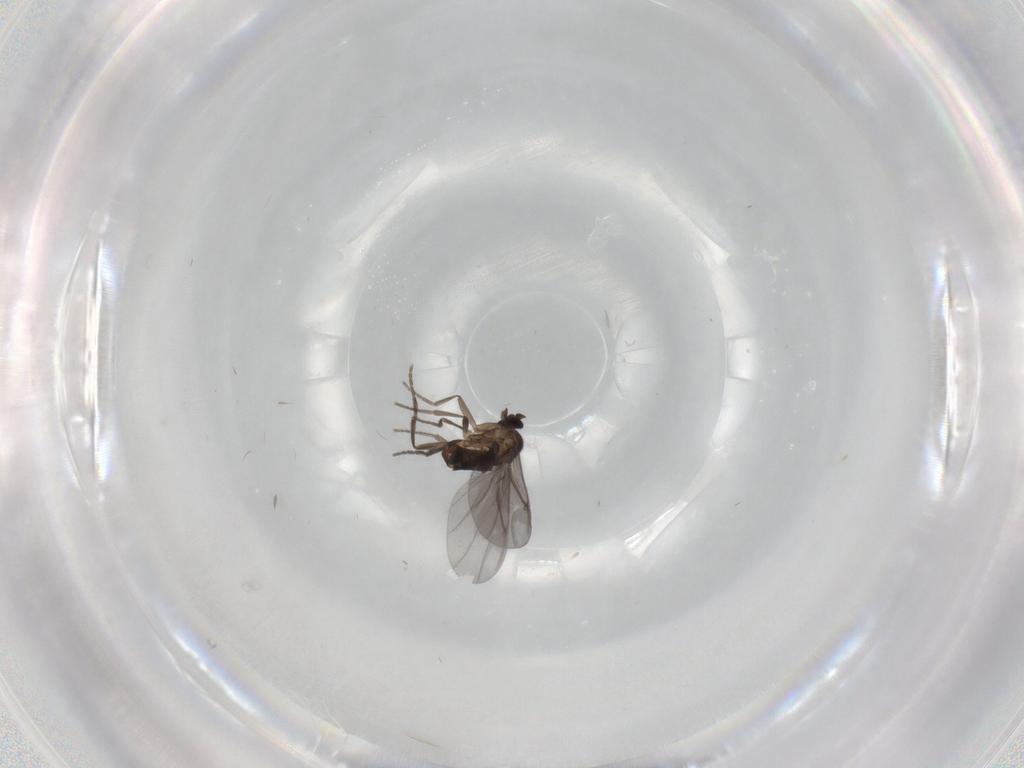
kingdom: Animalia
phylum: Arthropoda
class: Insecta
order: Diptera
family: Phoridae
